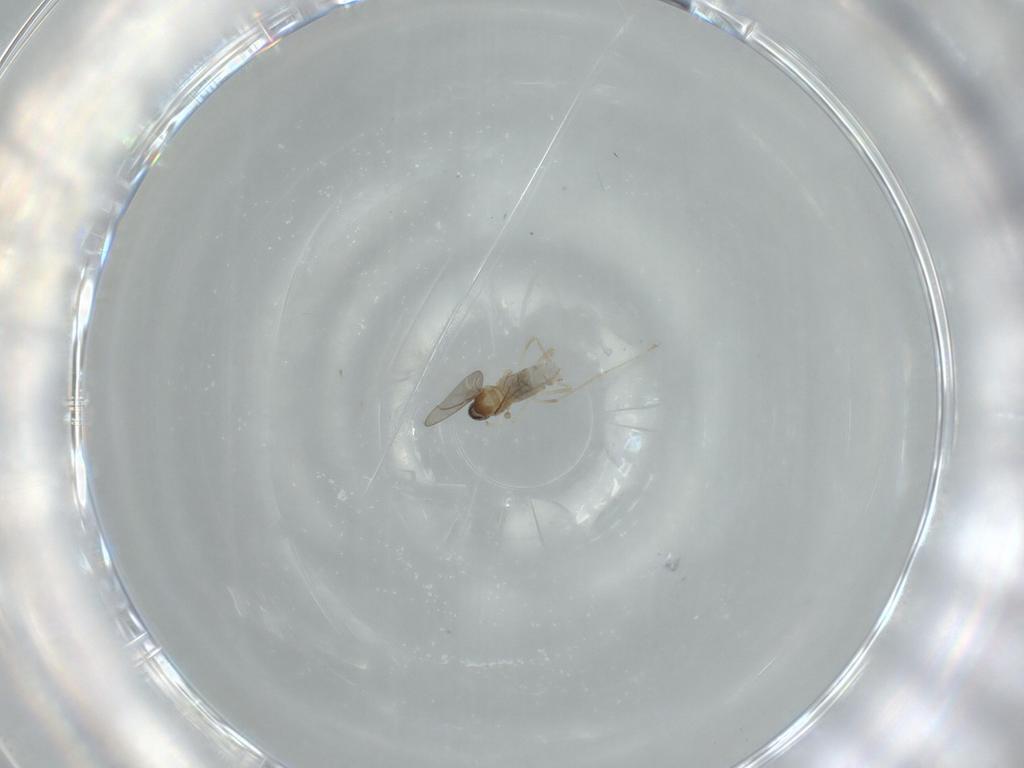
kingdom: Animalia
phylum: Arthropoda
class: Insecta
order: Diptera
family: Cecidomyiidae
